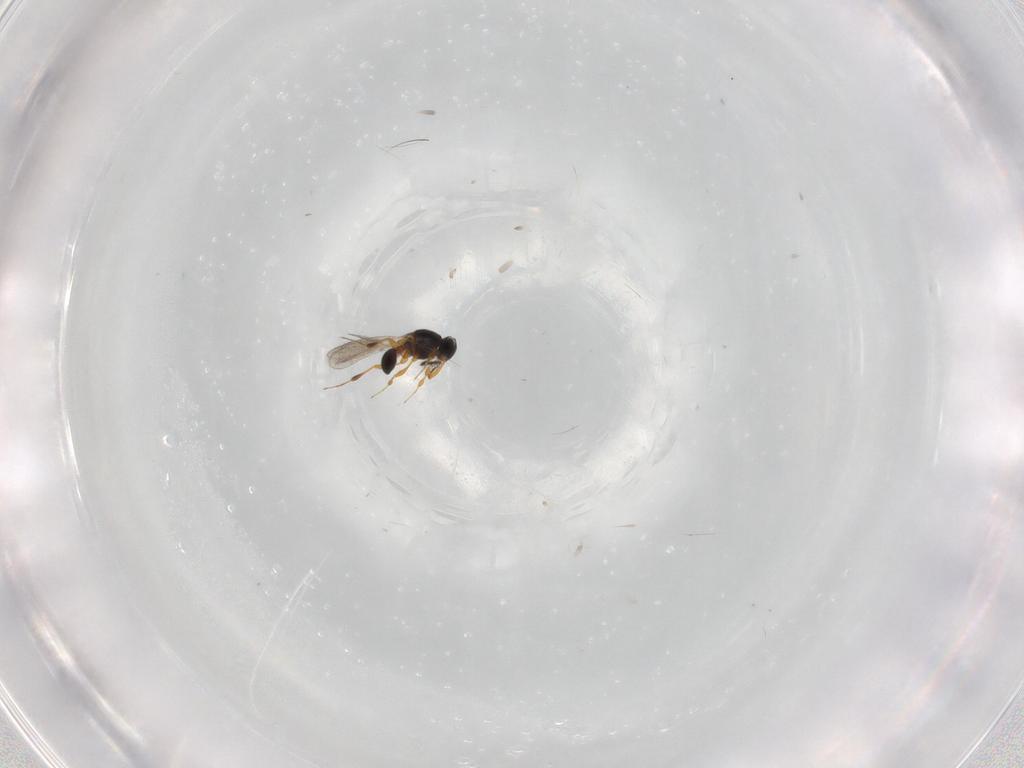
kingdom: Animalia
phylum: Arthropoda
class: Insecta
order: Hymenoptera
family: Platygastridae
